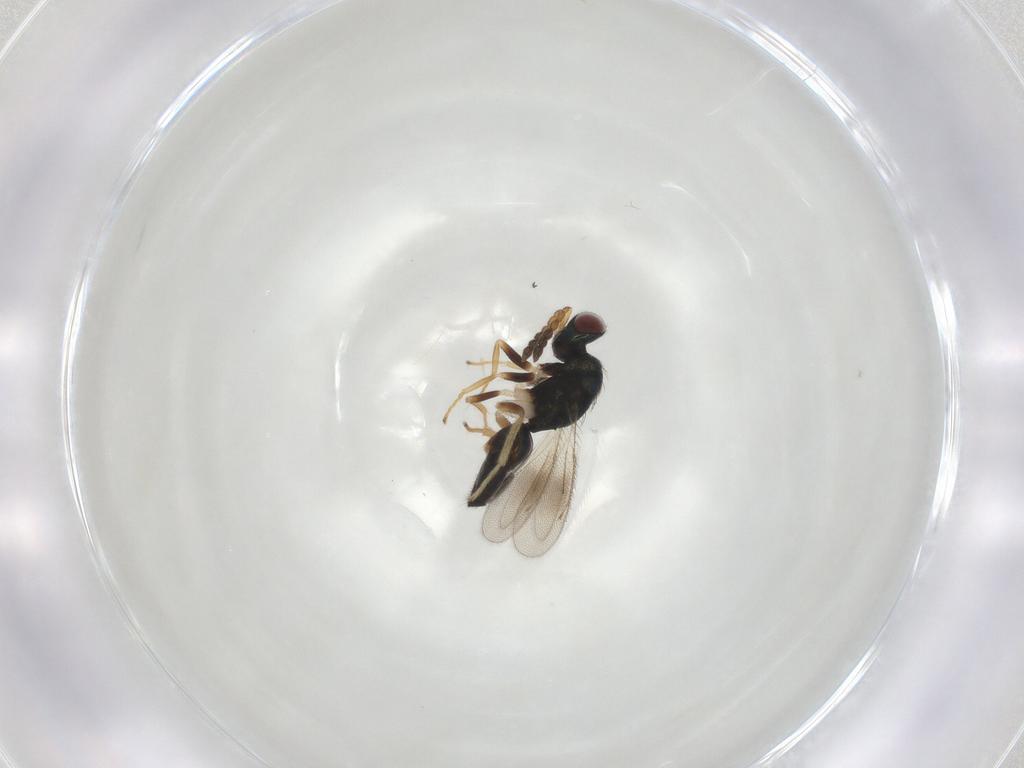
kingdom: Animalia
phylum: Arthropoda
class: Insecta
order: Hymenoptera
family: Eulophidae
